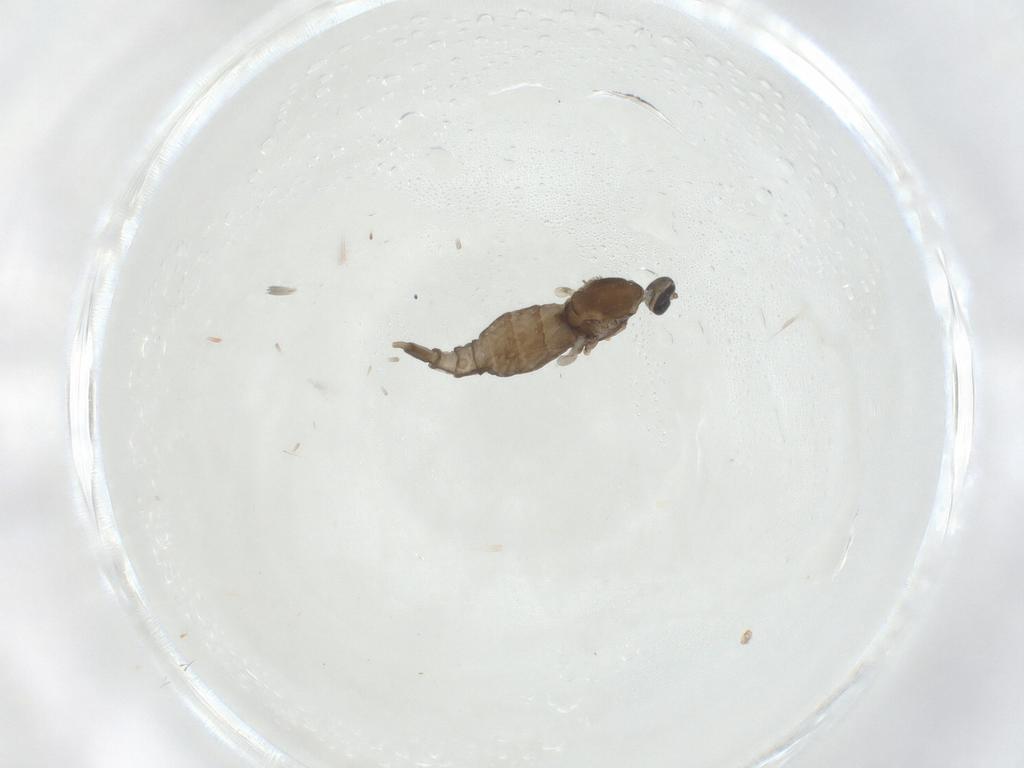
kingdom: Animalia
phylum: Arthropoda
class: Insecta
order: Diptera
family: Cecidomyiidae
